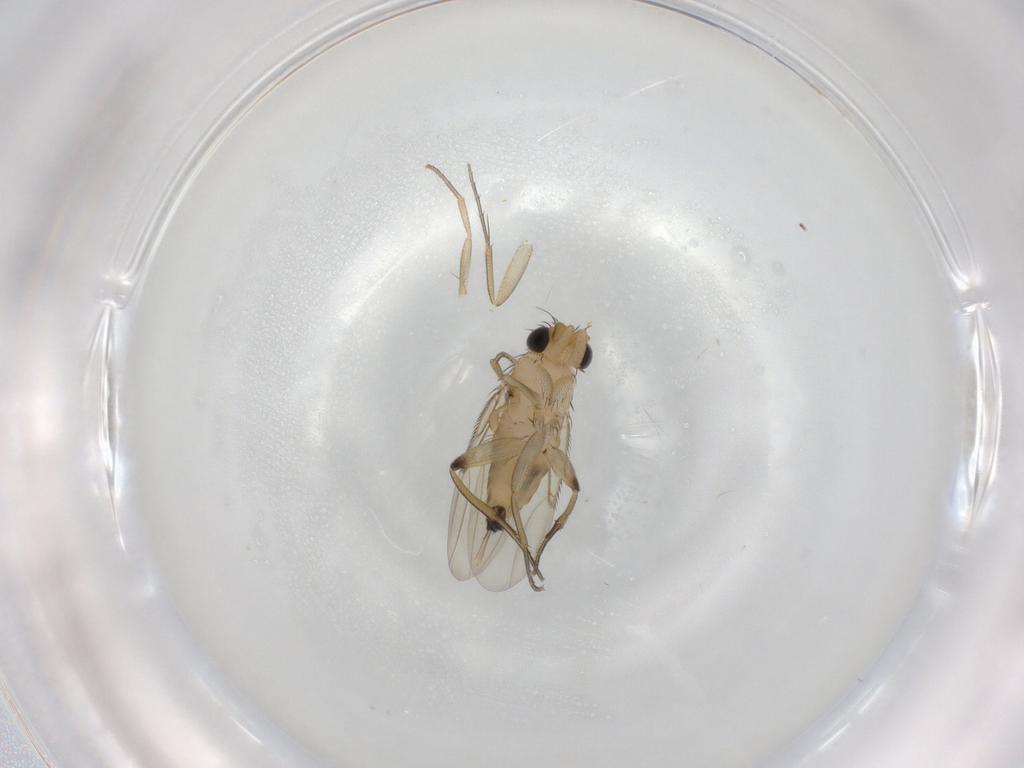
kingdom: Animalia
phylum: Arthropoda
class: Insecta
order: Diptera
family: Phoridae
